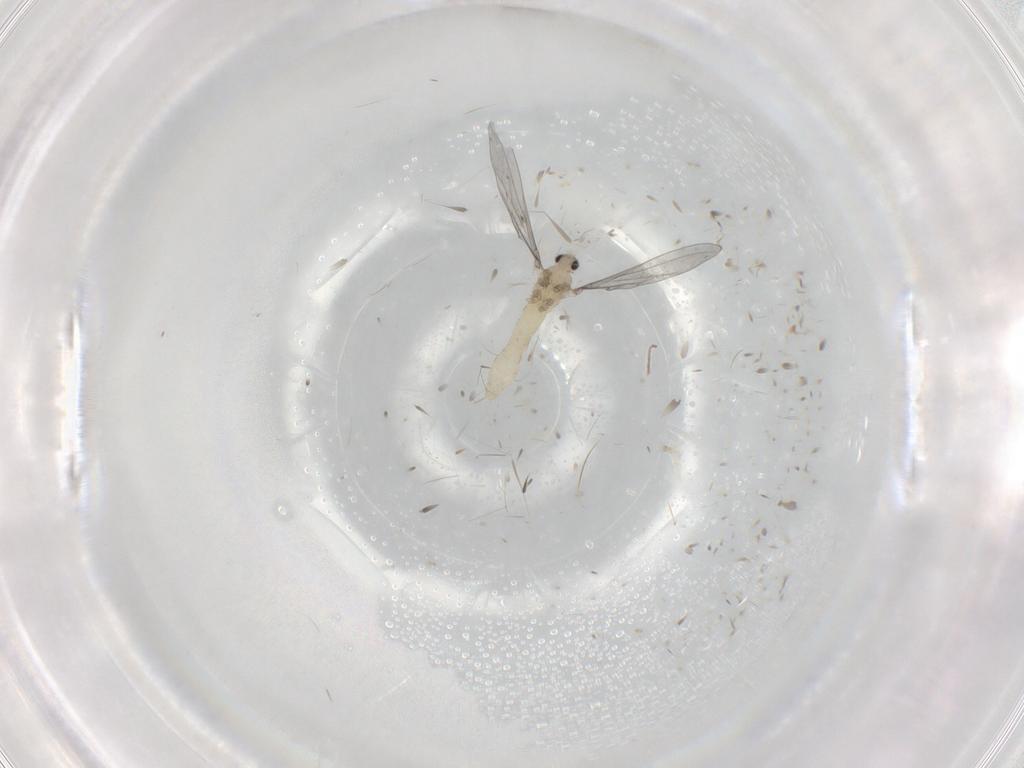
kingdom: Animalia
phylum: Arthropoda
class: Insecta
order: Diptera
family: Cecidomyiidae
